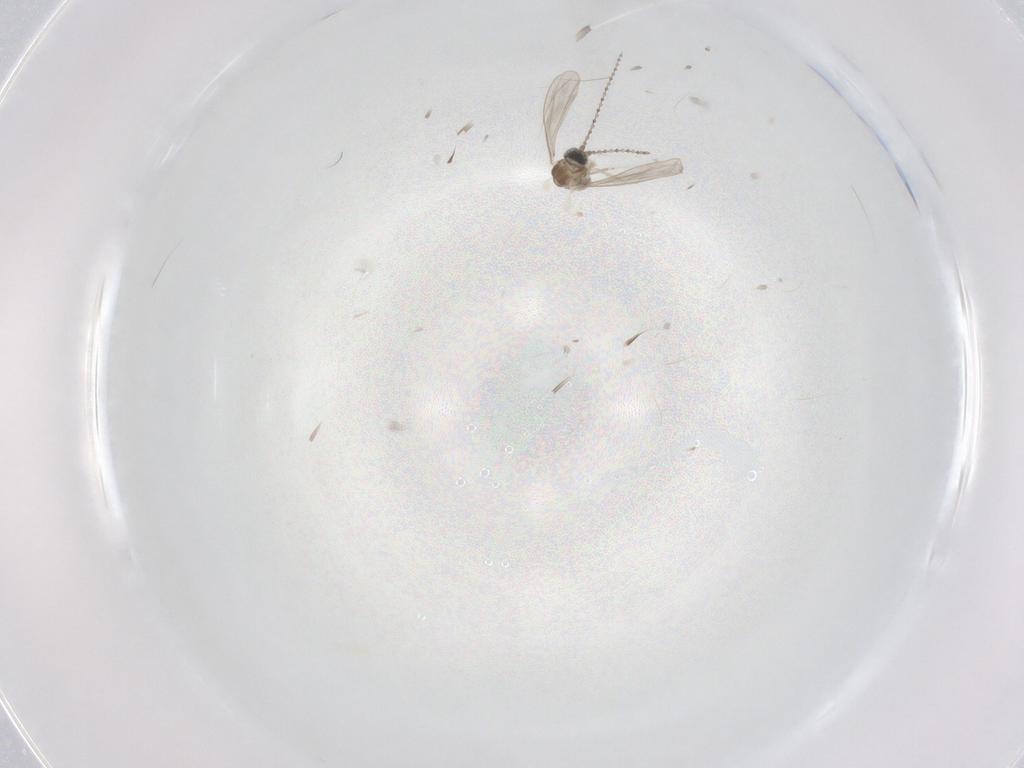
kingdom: Animalia
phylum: Arthropoda
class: Insecta
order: Diptera
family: Cecidomyiidae
